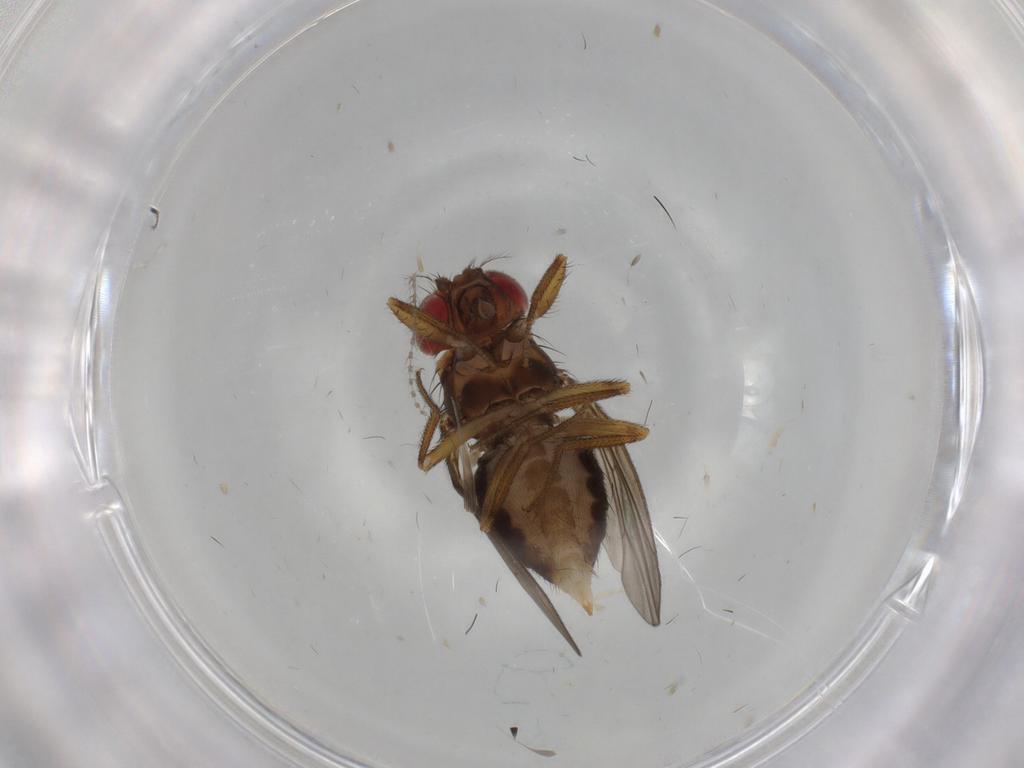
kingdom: Animalia
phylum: Arthropoda
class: Insecta
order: Diptera
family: Drosophilidae
